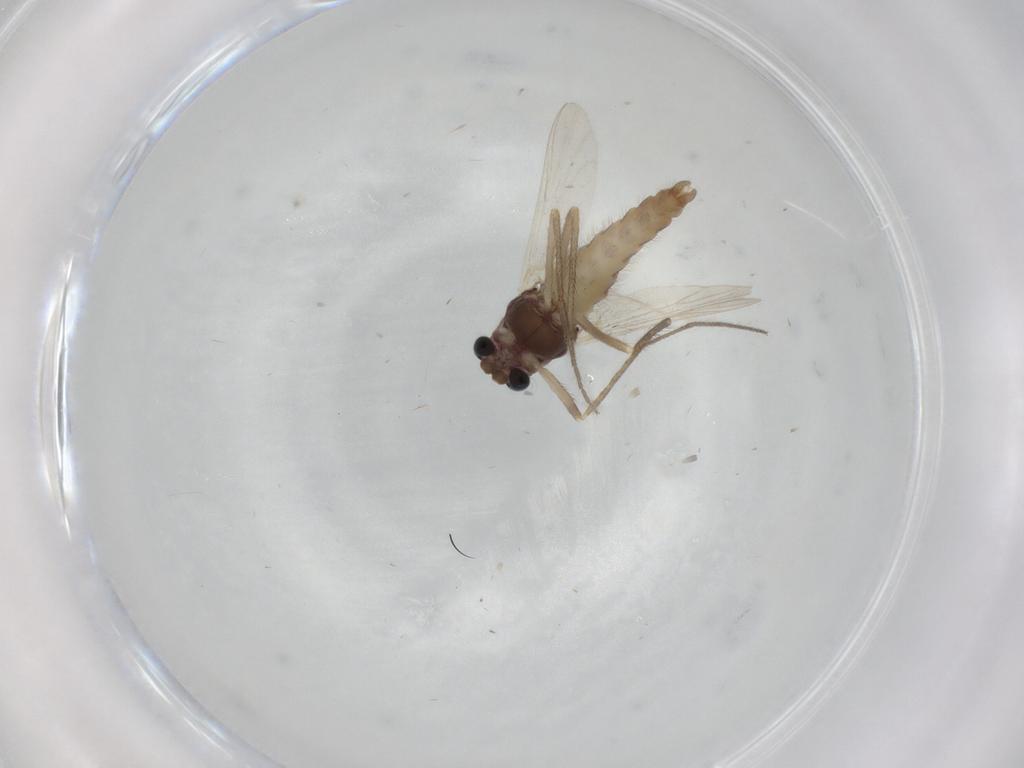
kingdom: Animalia
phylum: Arthropoda
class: Insecta
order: Diptera
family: Chironomidae
